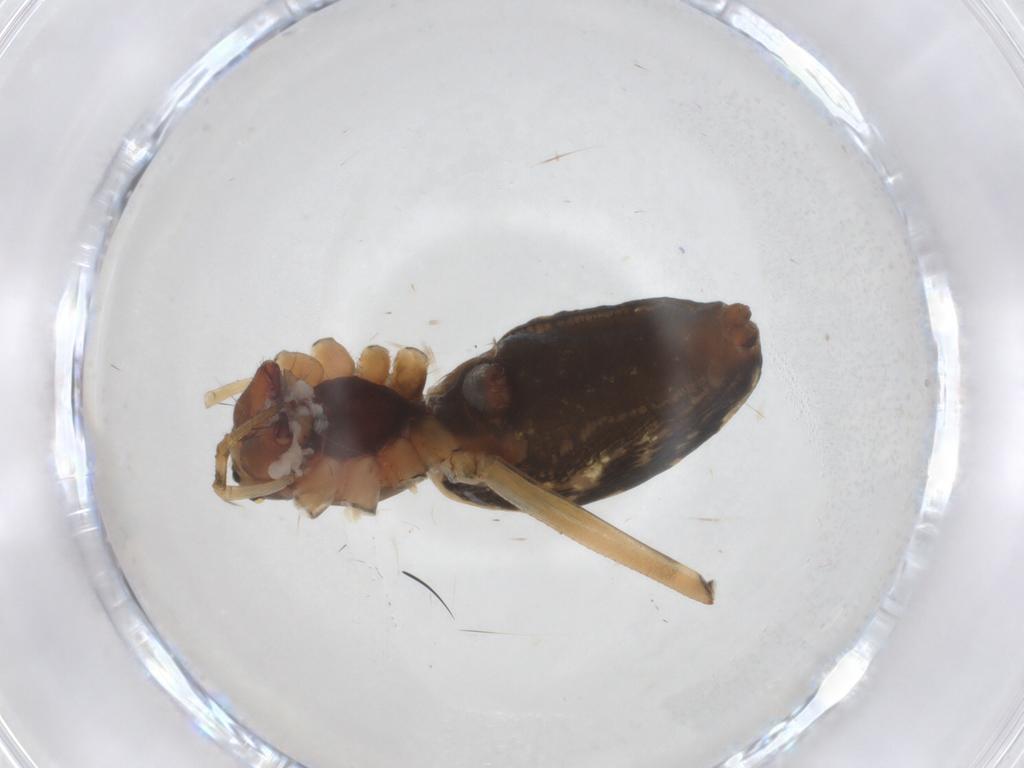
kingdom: Animalia
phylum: Arthropoda
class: Arachnida
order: Araneae
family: Linyphiidae
